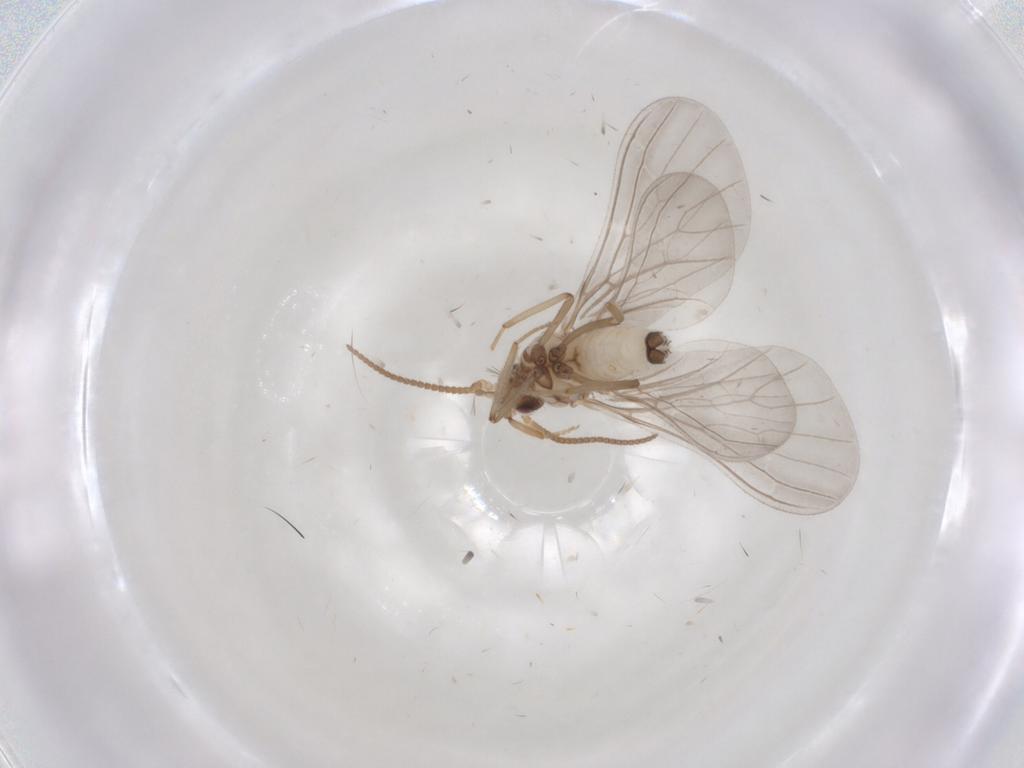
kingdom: Animalia
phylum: Arthropoda
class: Insecta
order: Neuroptera
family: Coniopterygidae
